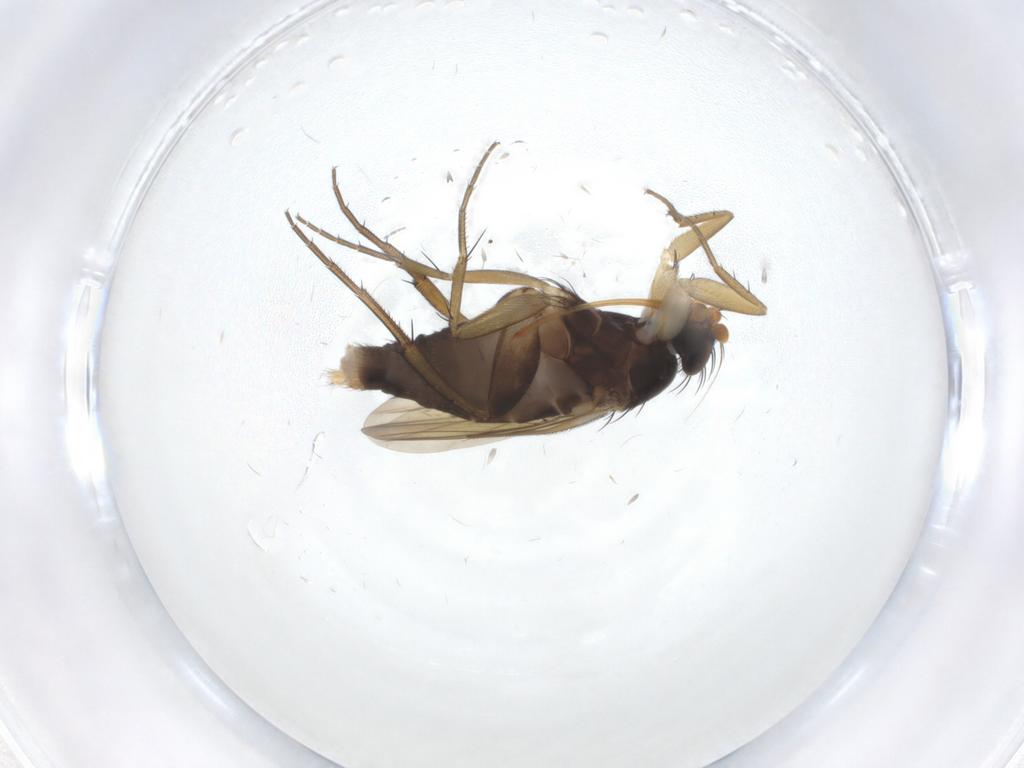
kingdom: Animalia
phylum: Arthropoda
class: Insecta
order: Diptera
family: Phoridae
